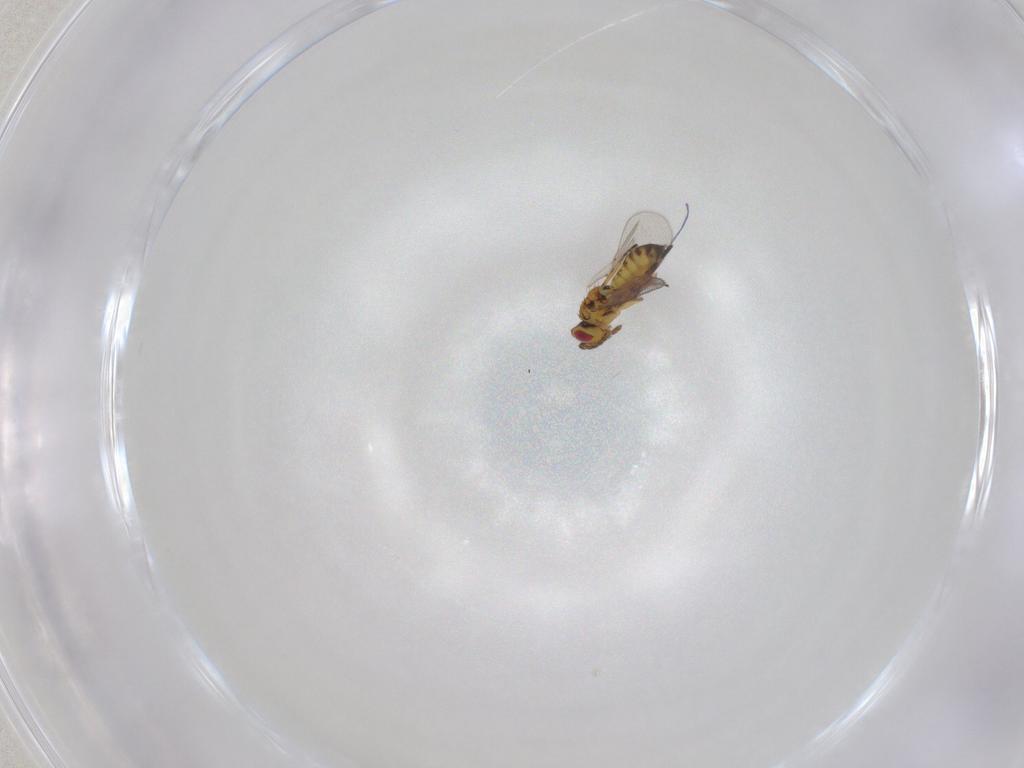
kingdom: Animalia
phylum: Arthropoda
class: Insecta
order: Hymenoptera
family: Eulophidae
